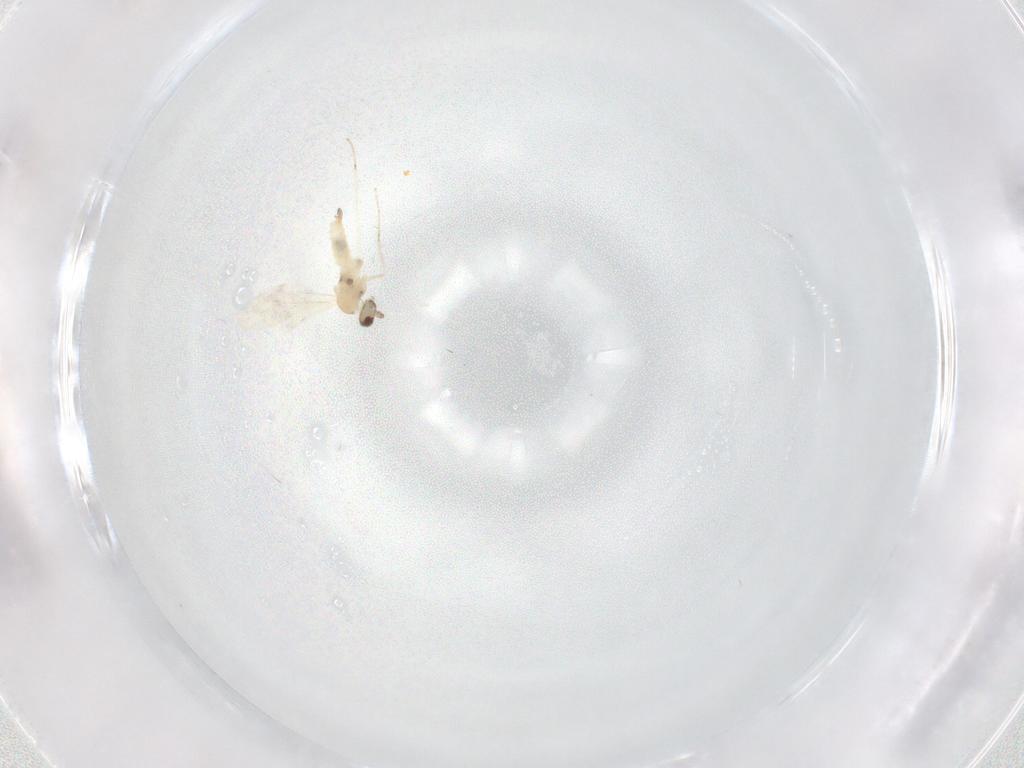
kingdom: Animalia
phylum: Arthropoda
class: Insecta
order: Diptera
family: Cecidomyiidae
